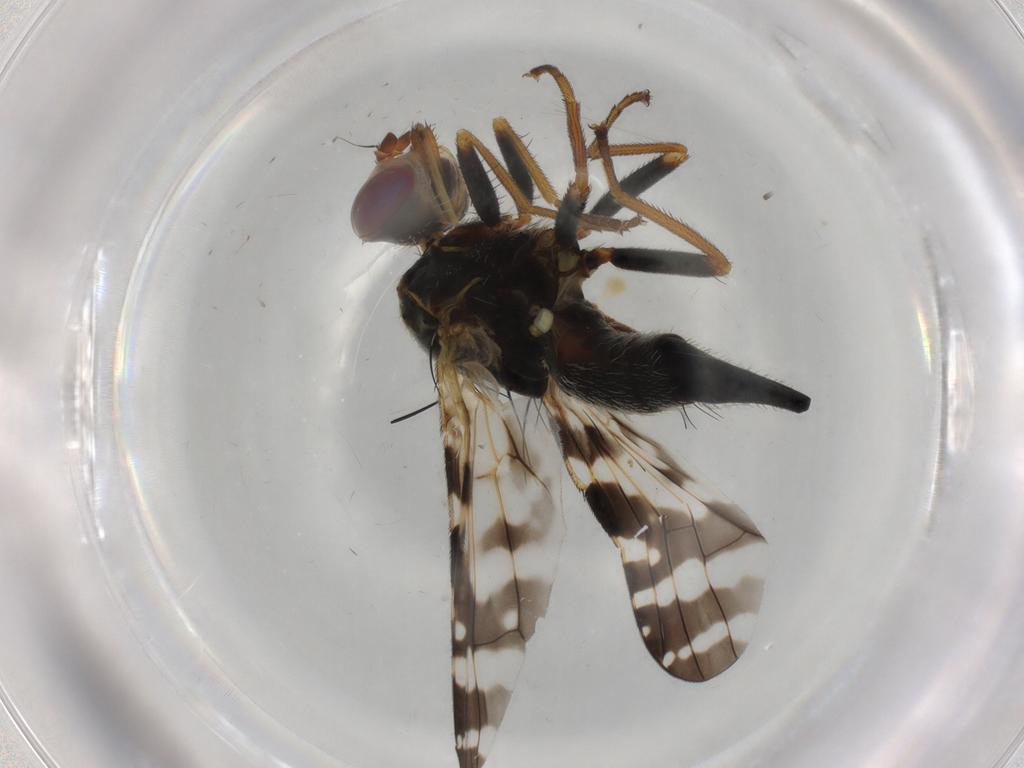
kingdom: Animalia
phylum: Arthropoda
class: Insecta
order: Diptera
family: Tephritidae
